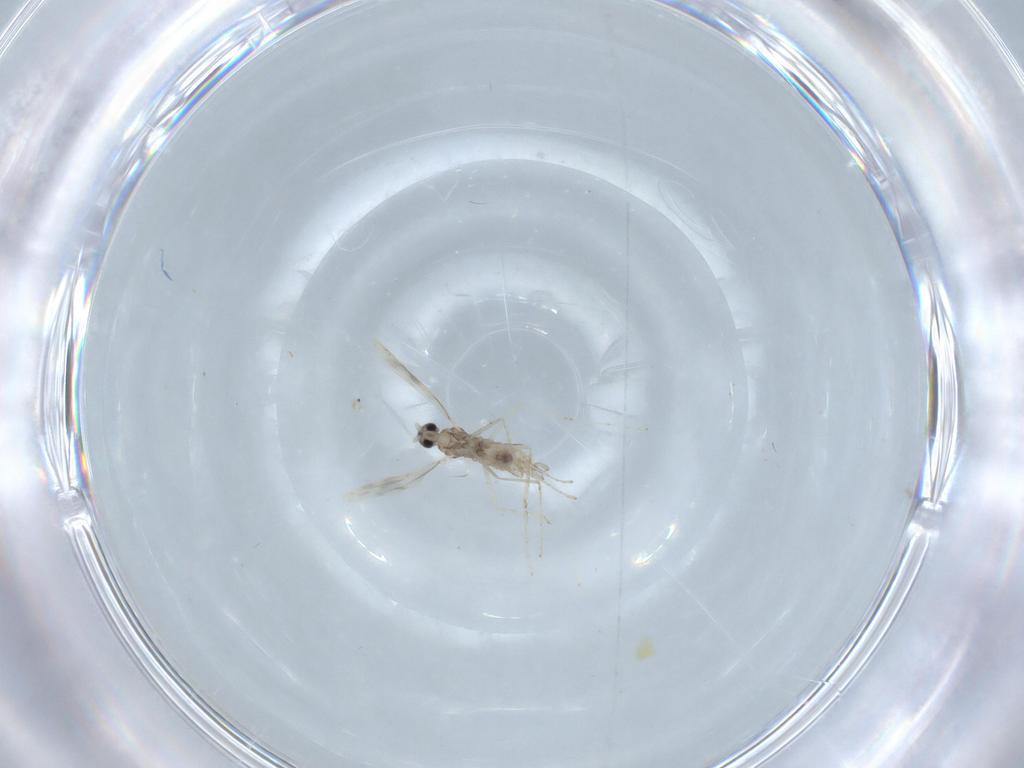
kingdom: Animalia
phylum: Arthropoda
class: Insecta
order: Diptera
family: Cecidomyiidae
